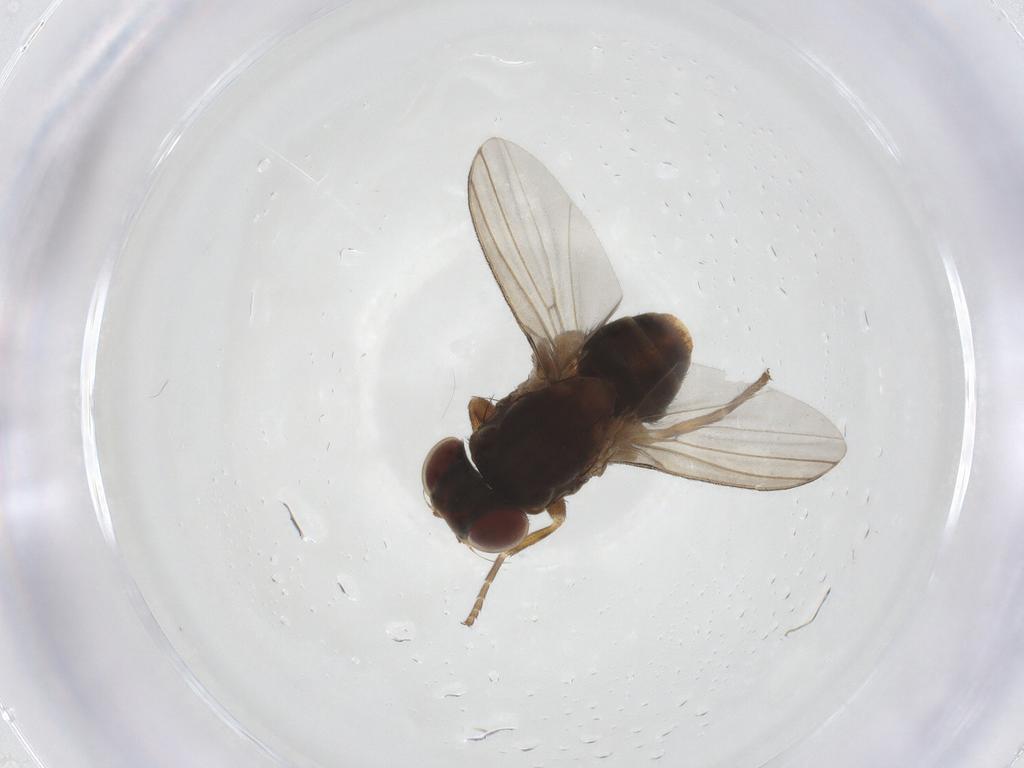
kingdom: Animalia
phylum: Arthropoda
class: Insecta
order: Diptera
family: Odiniidae
